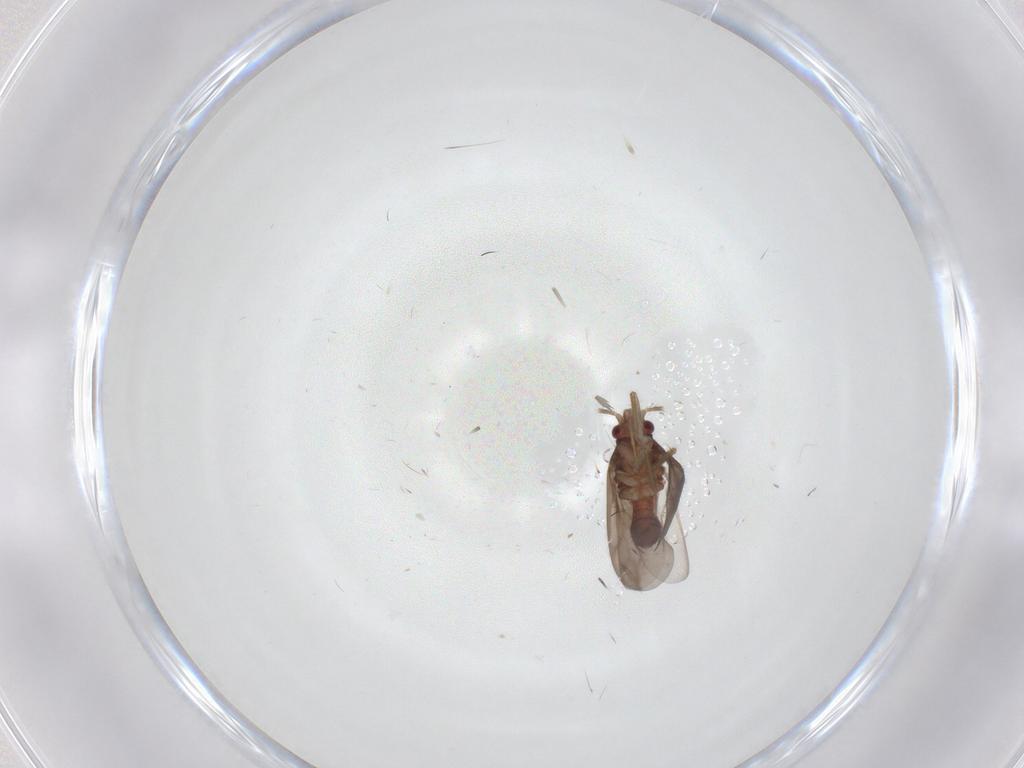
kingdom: Animalia
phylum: Arthropoda
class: Insecta
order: Hemiptera
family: Ceratocombidae
